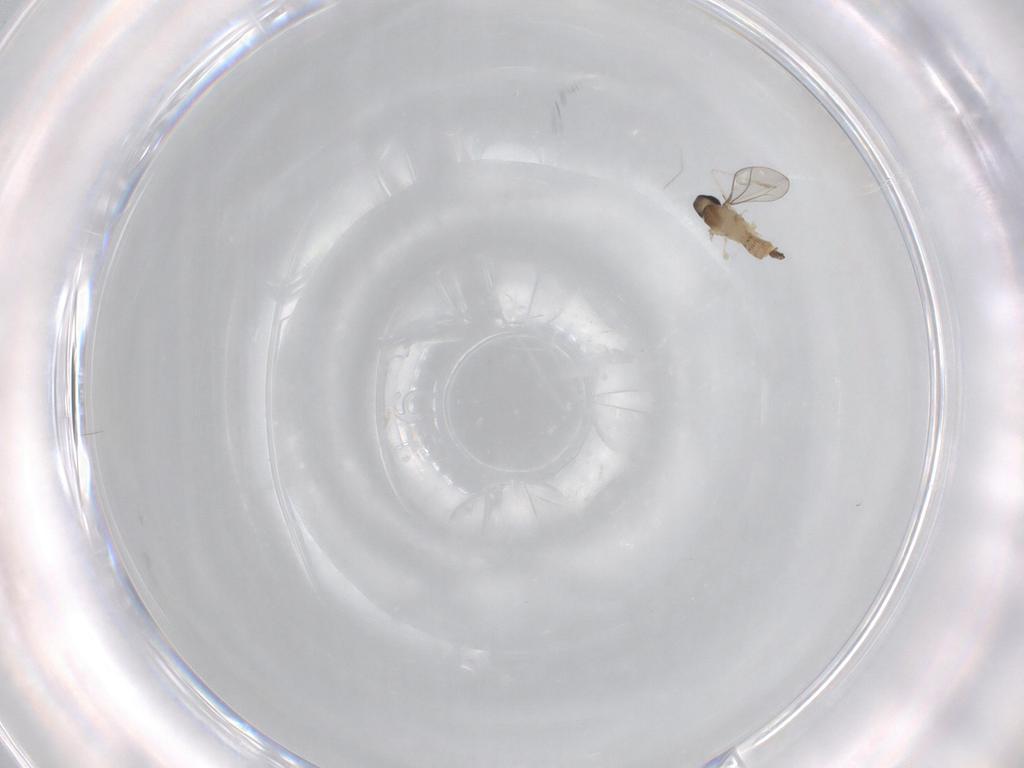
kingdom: Animalia
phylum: Arthropoda
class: Insecta
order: Diptera
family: Cecidomyiidae
